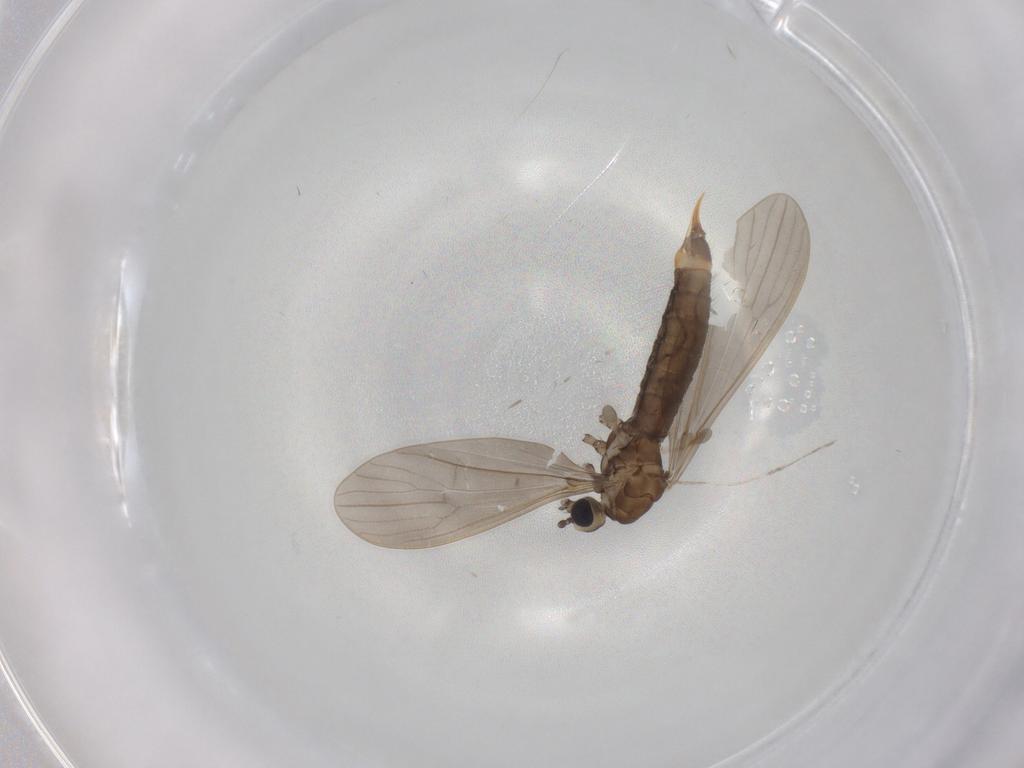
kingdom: Animalia
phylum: Arthropoda
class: Insecta
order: Diptera
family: Limoniidae
